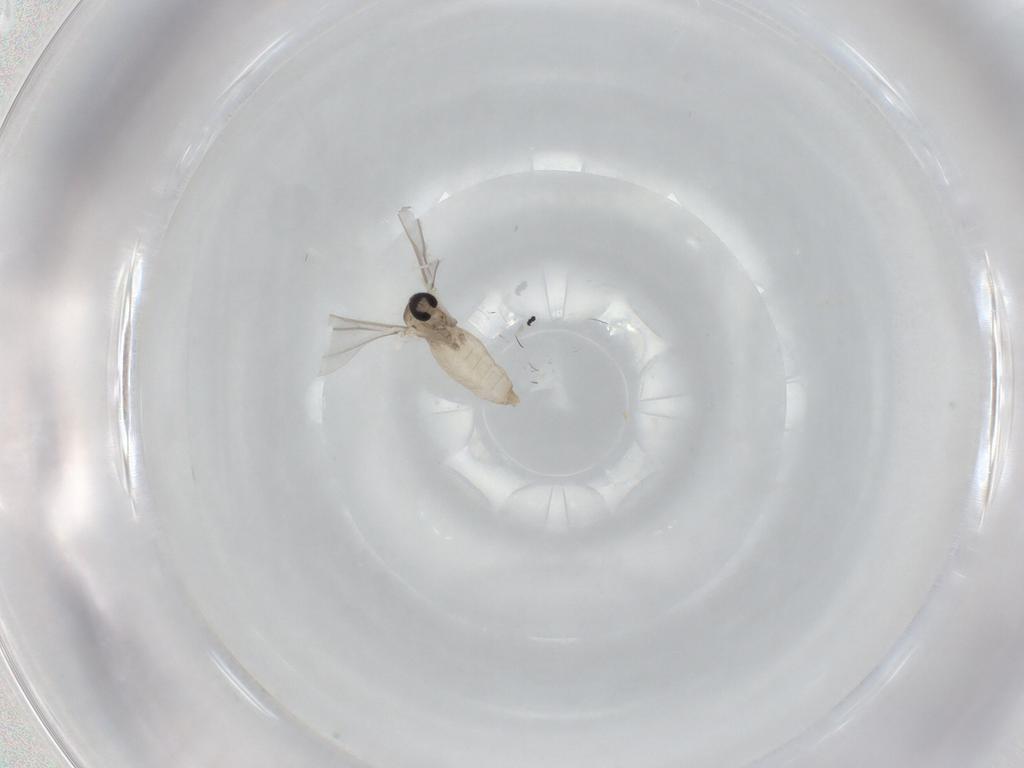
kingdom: Animalia
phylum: Arthropoda
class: Insecta
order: Diptera
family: Cecidomyiidae
